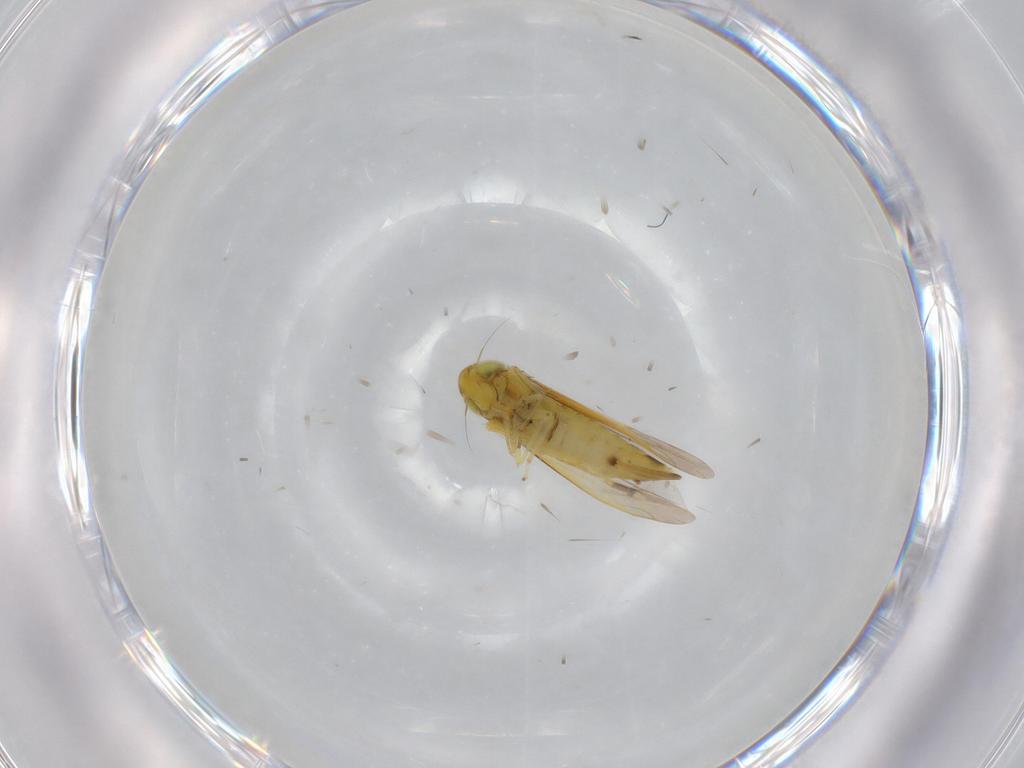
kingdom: Animalia
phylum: Arthropoda
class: Insecta
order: Hemiptera
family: Cicadellidae
